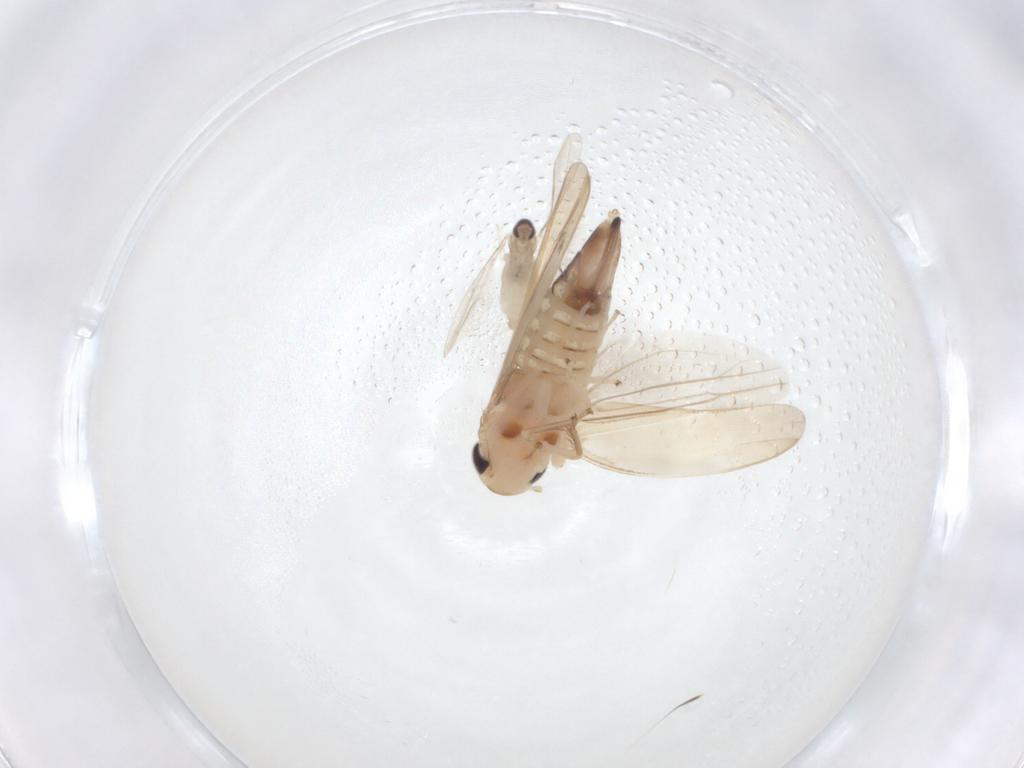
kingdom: Animalia
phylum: Arthropoda
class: Insecta
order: Hemiptera
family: Cicadellidae
